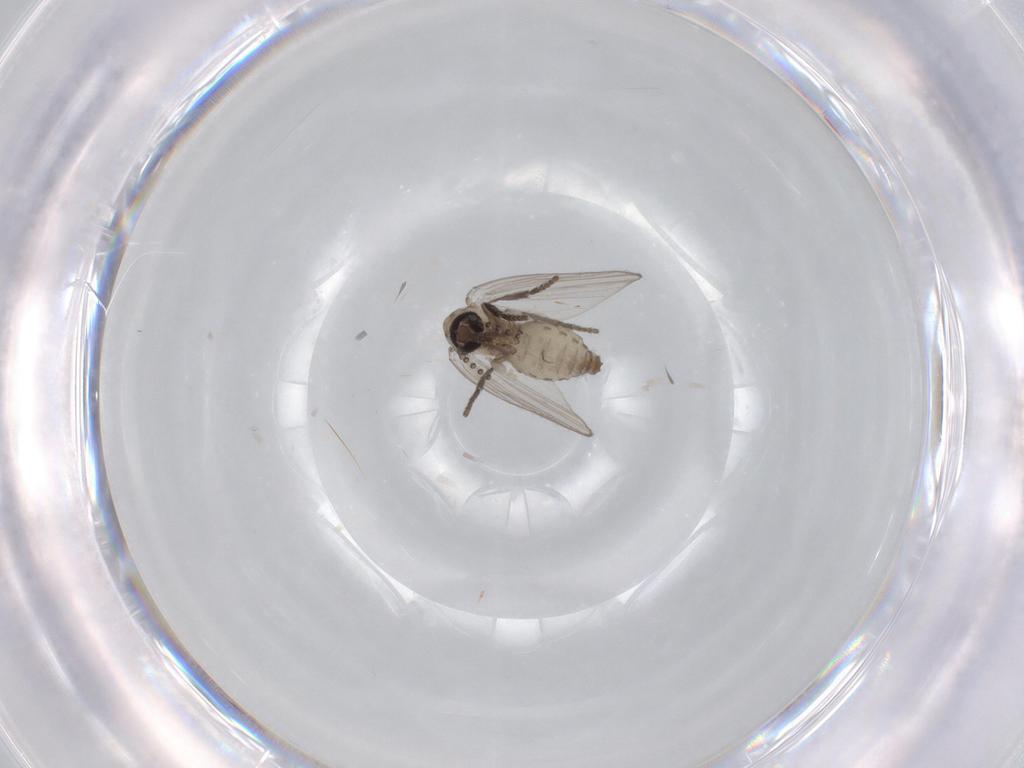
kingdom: Animalia
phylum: Arthropoda
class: Insecta
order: Diptera
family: Psychodidae
